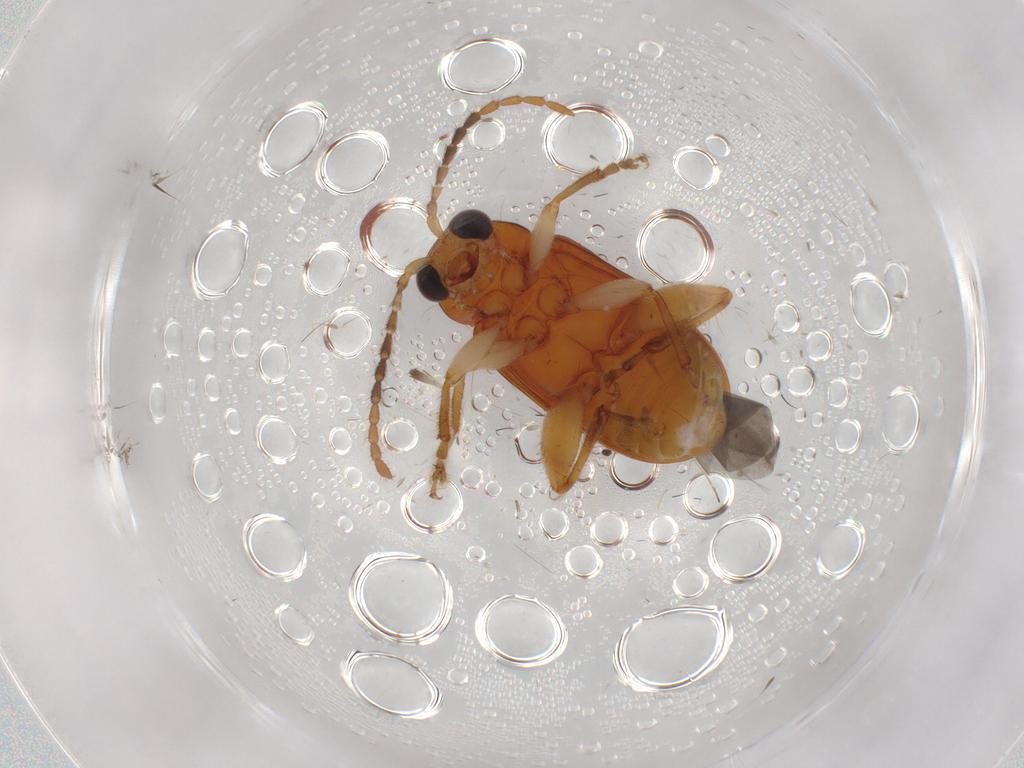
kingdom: Animalia
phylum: Arthropoda
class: Insecta
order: Coleoptera
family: Chrysomelidae
